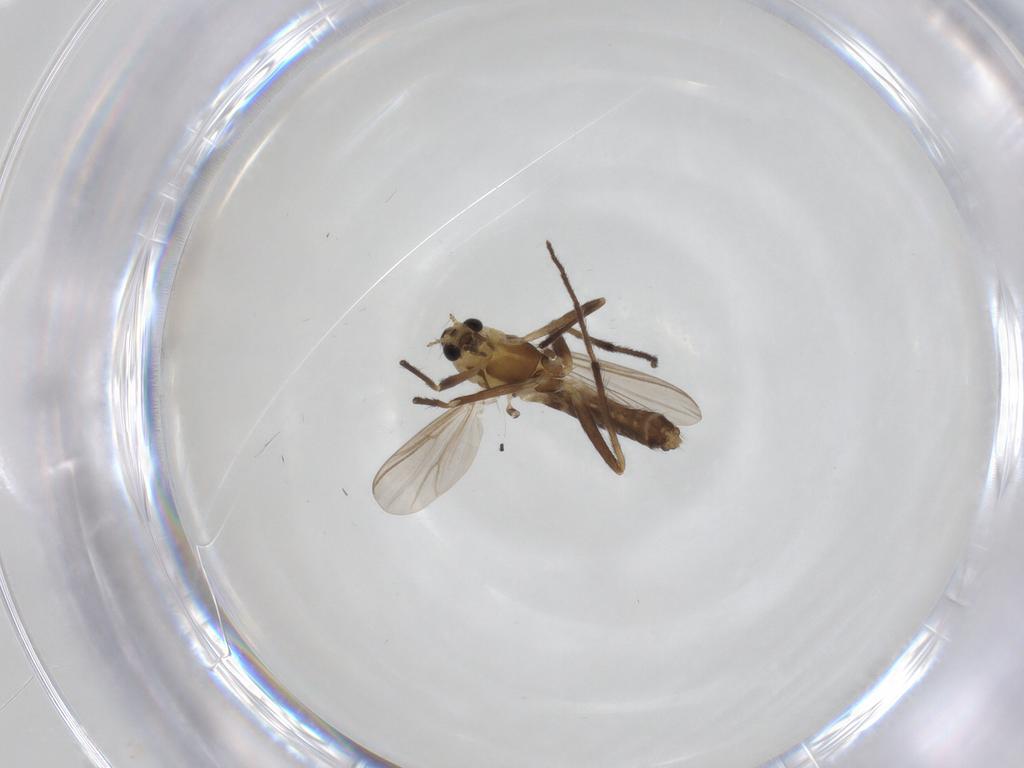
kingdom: Animalia
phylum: Arthropoda
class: Insecta
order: Diptera
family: Chironomidae
